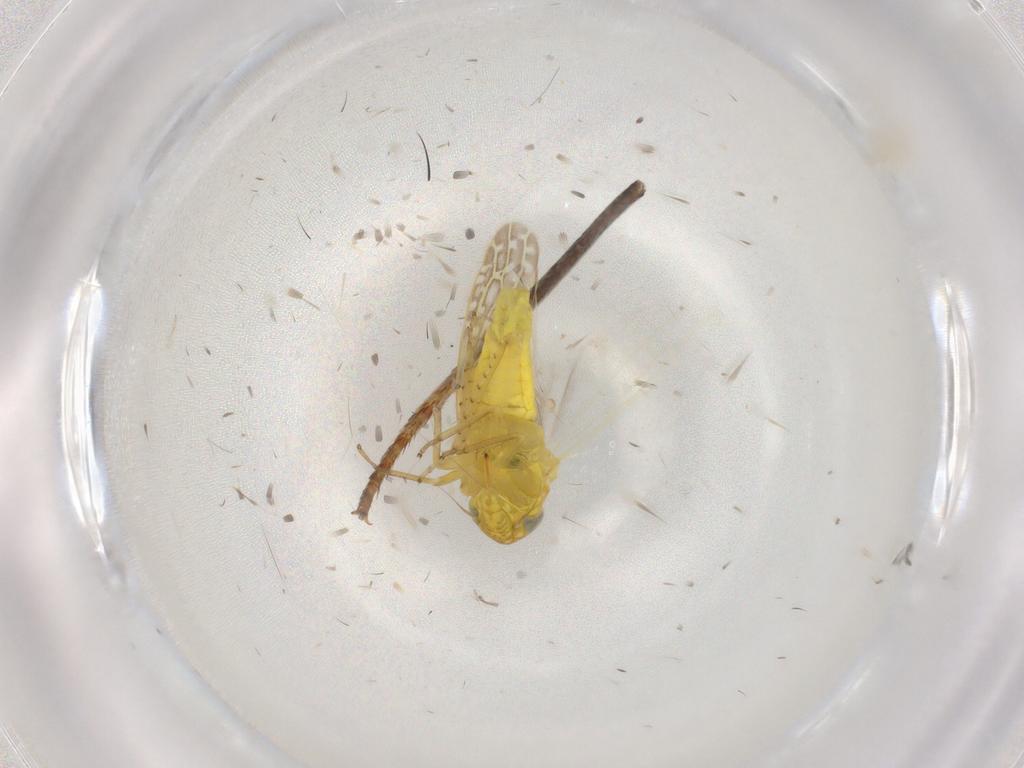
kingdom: Animalia
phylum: Arthropoda
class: Insecta
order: Hemiptera
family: Cicadellidae
